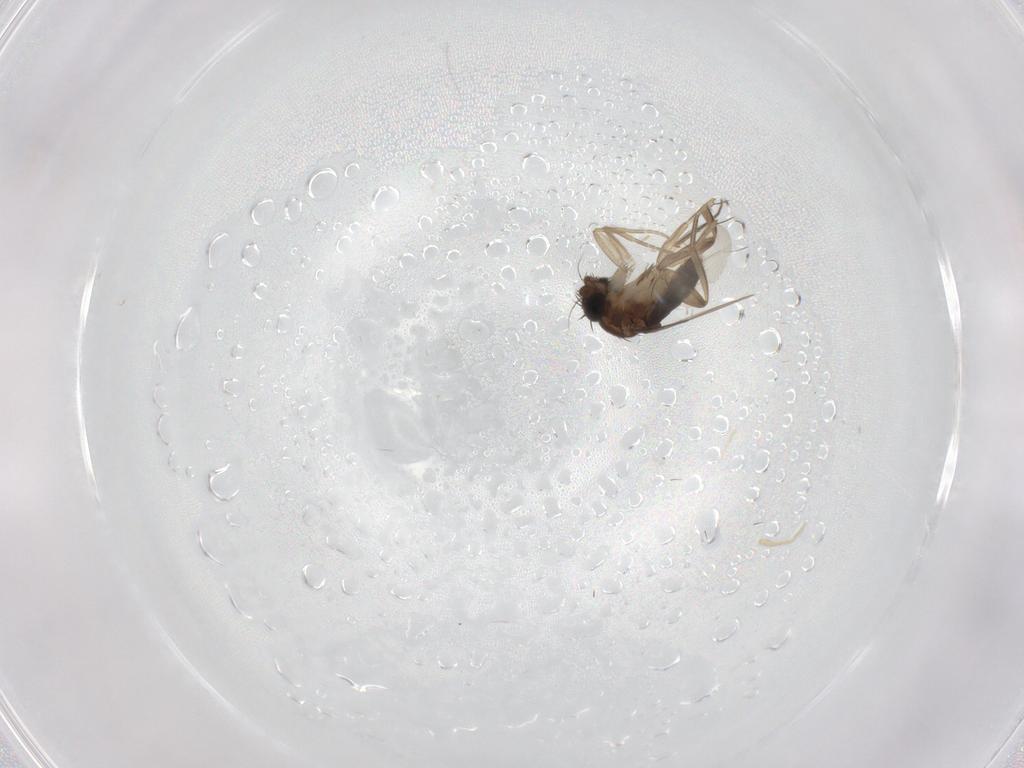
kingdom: Animalia
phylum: Arthropoda
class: Insecta
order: Diptera
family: Phoridae
